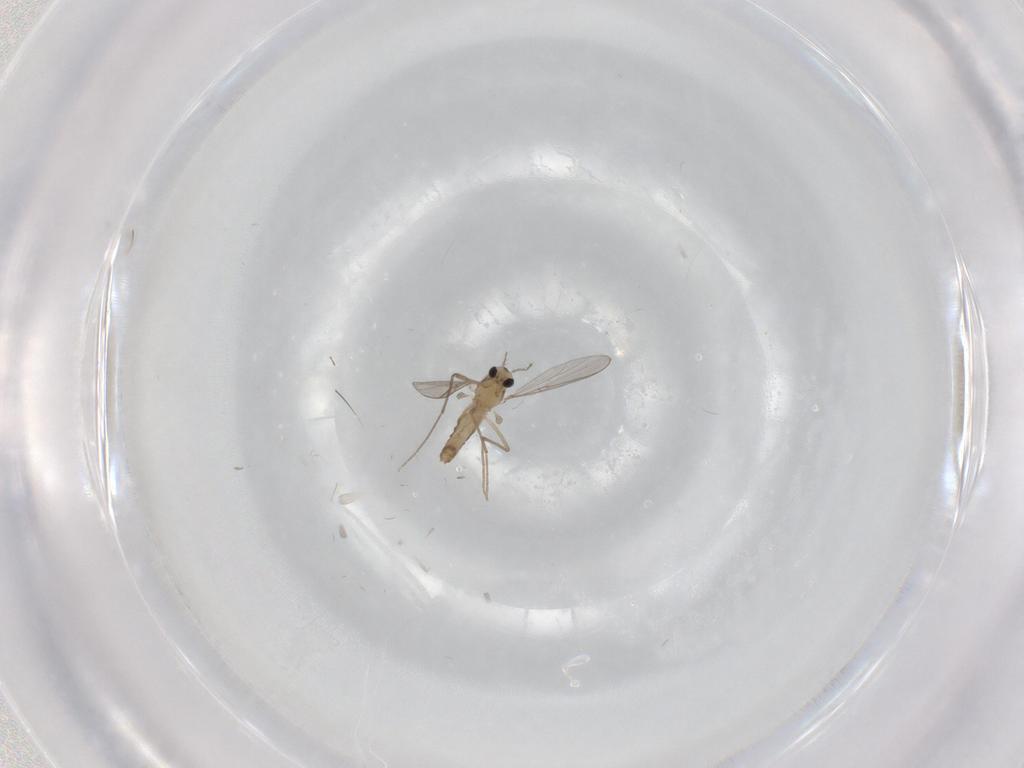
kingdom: Animalia
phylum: Arthropoda
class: Insecta
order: Diptera
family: Chironomidae
